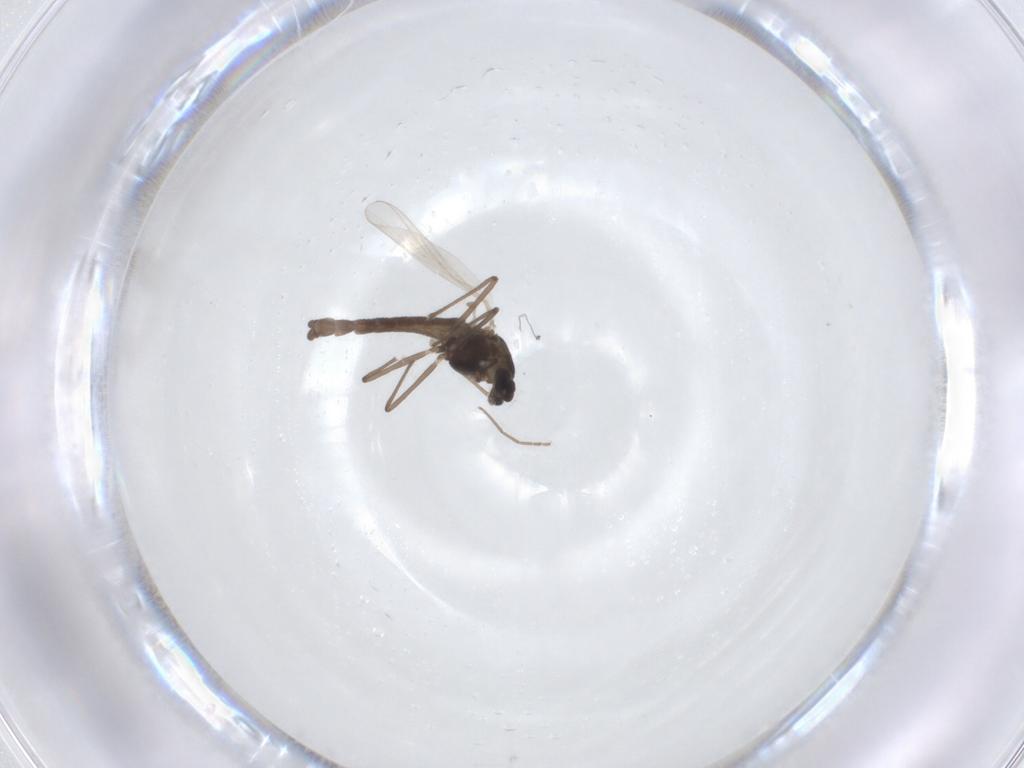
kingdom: Animalia
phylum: Arthropoda
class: Insecta
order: Diptera
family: Chironomidae
